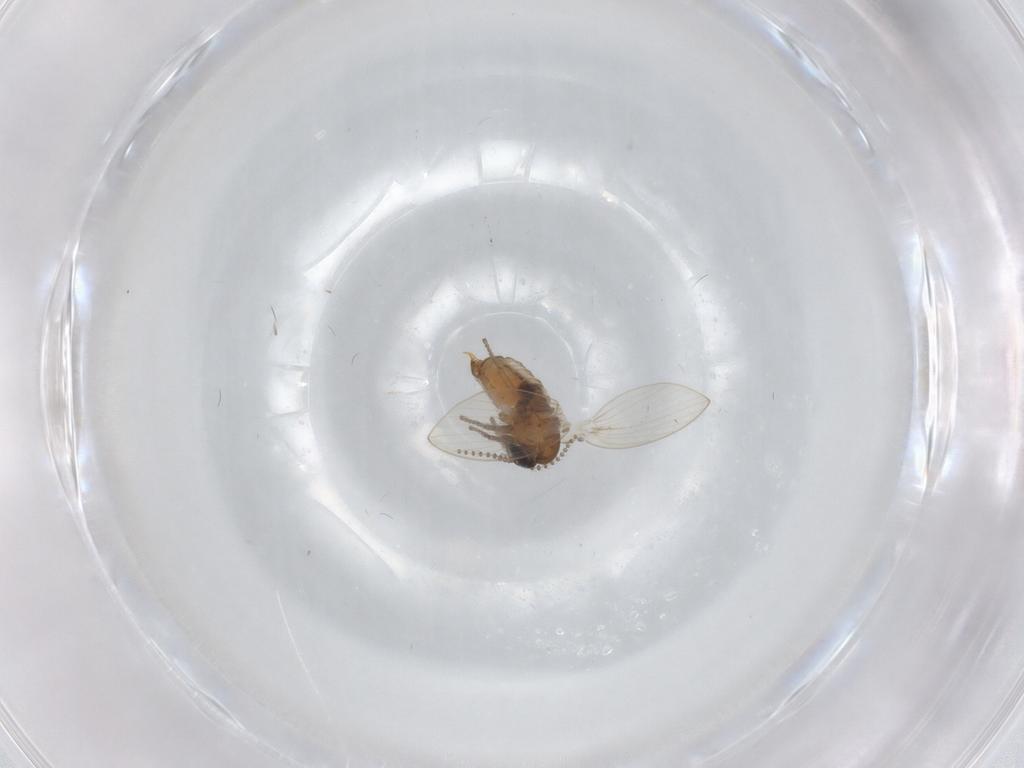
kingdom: Animalia
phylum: Arthropoda
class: Insecta
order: Diptera
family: Psychodidae
